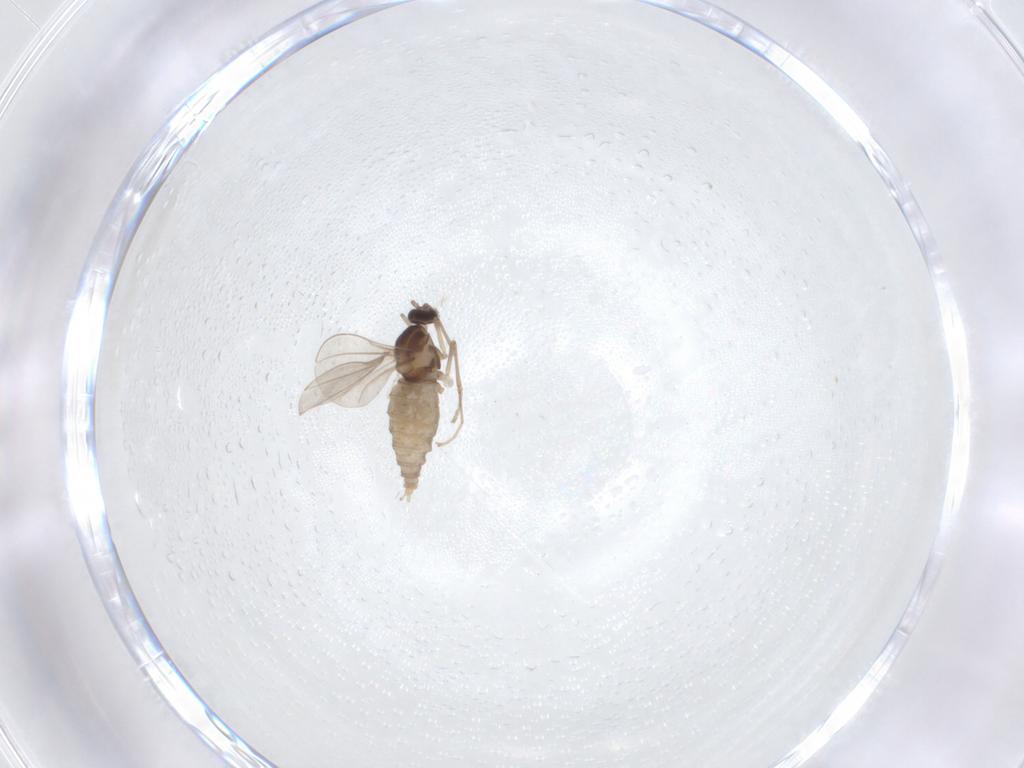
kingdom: Animalia
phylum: Arthropoda
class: Insecta
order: Diptera
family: Cecidomyiidae
